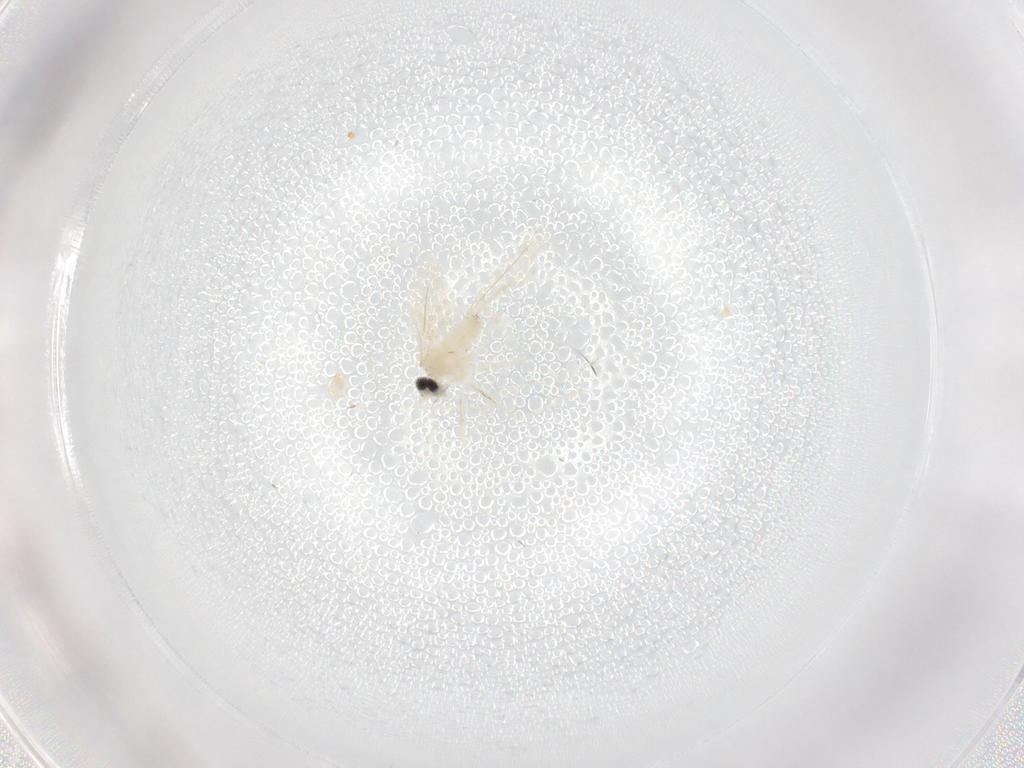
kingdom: Animalia
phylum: Arthropoda
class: Insecta
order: Diptera
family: Cecidomyiidae
